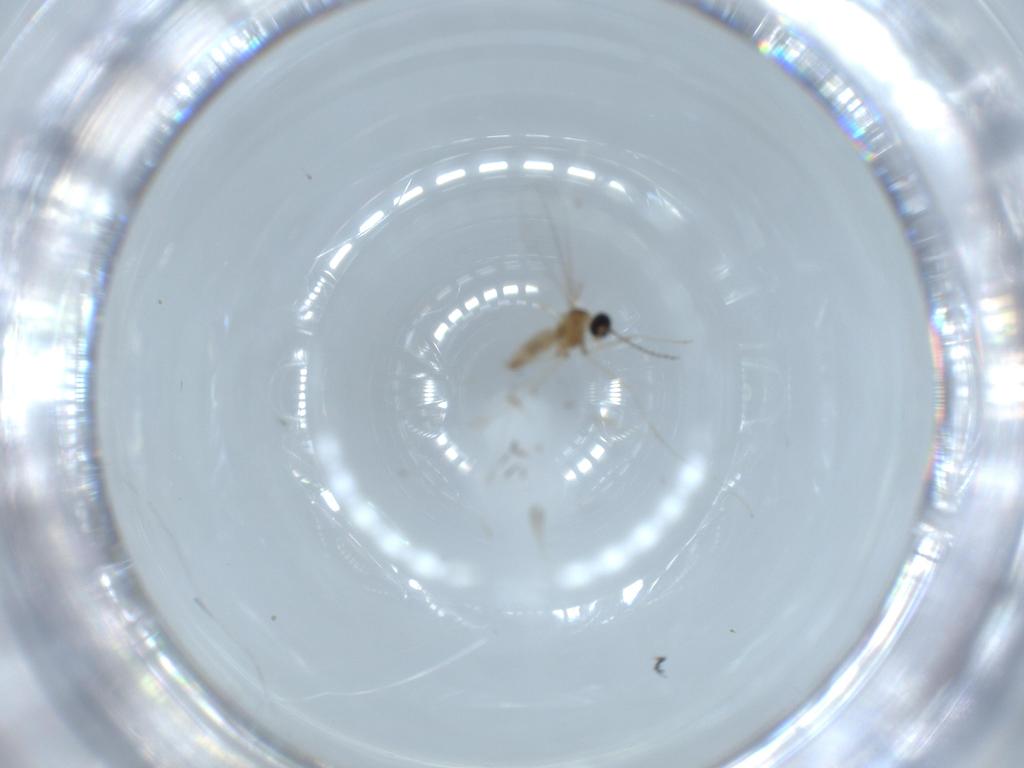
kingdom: Animalia
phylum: Arthropoda
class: Insecta
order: Diptera
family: Cecidomyiidae
